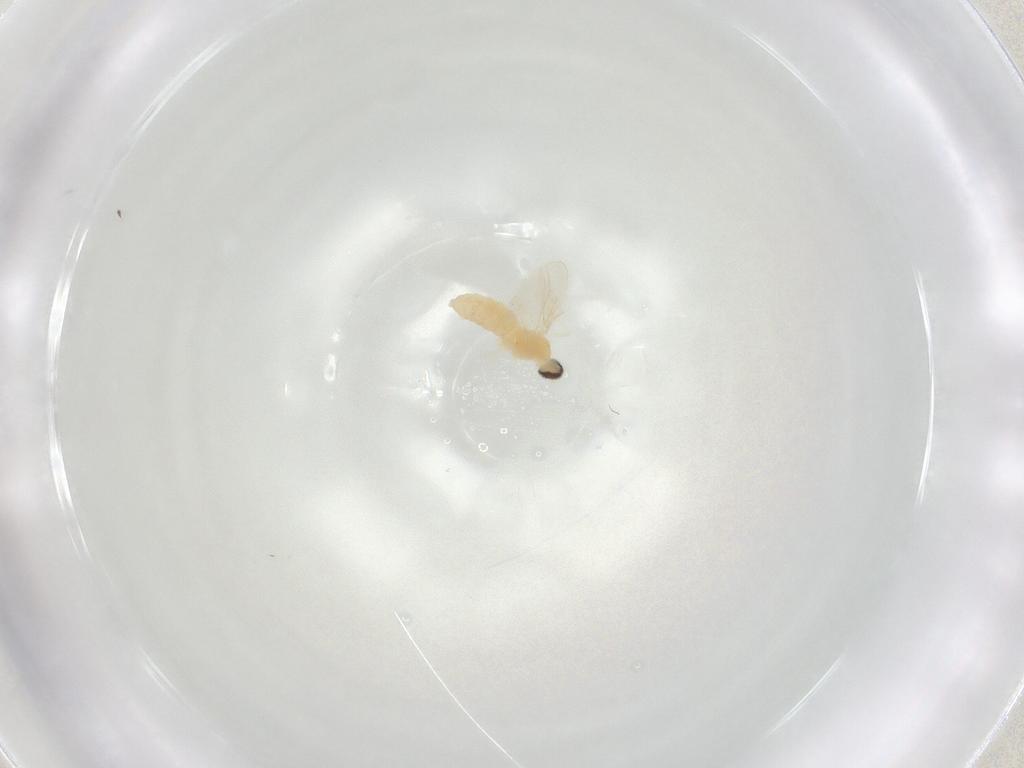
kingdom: Animalia
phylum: Arthropoda
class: Insecta
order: Diptera
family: Cecidomyiidae
